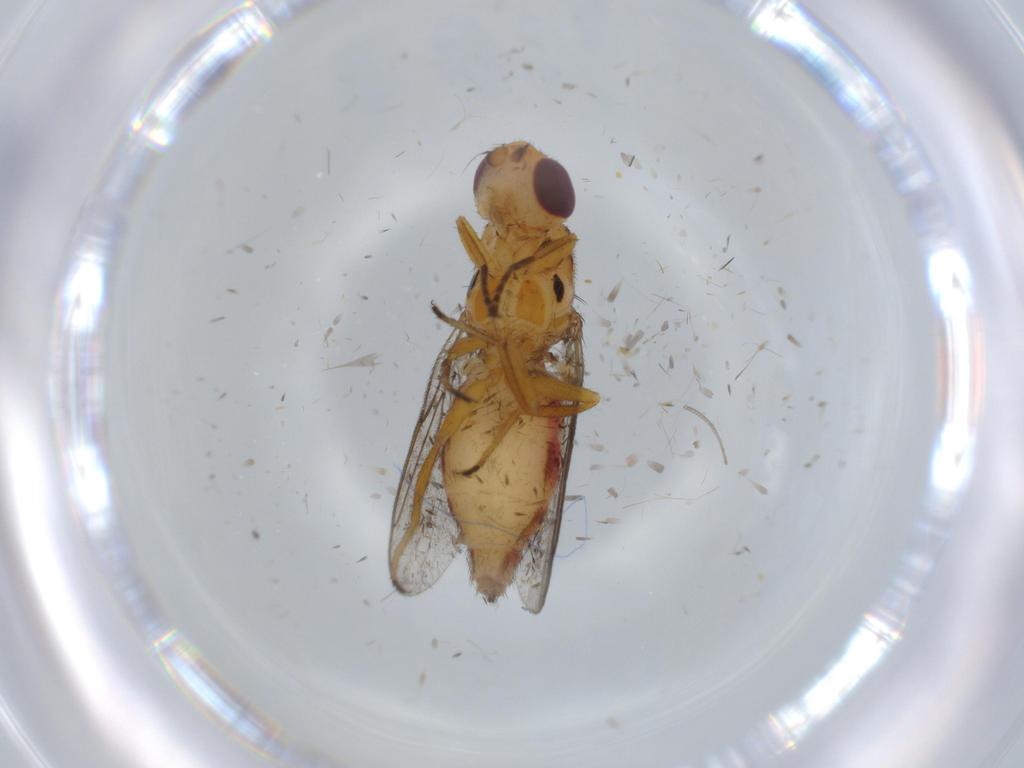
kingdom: Animalia
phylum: Arthropoda
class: Insecta
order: Diptera
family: Chloropidae
